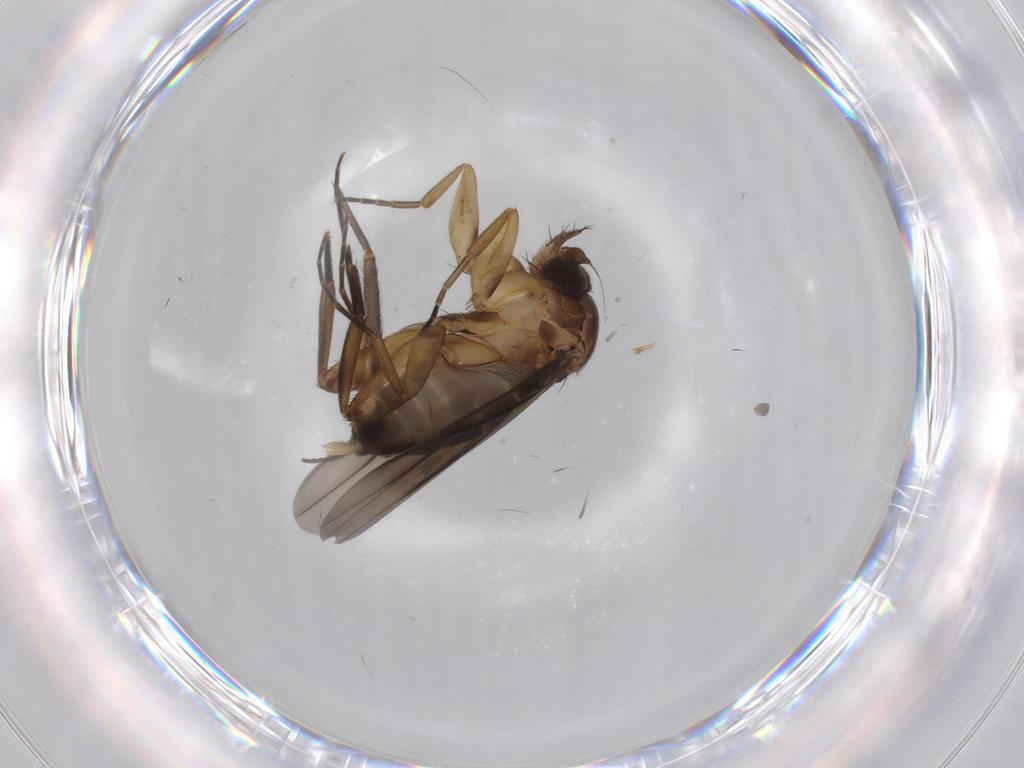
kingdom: Animalia
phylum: Arthropoda
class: Insecta
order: Diptera
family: Sciaridae
